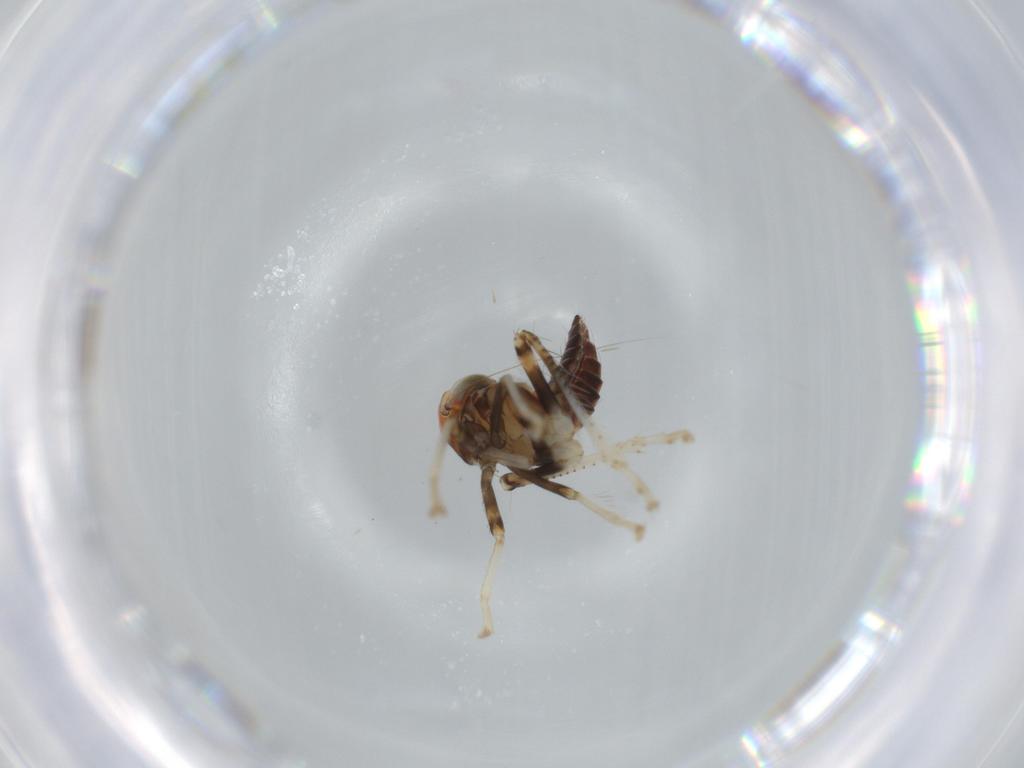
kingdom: Animalia
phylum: Arthropoda
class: Insecta
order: Hemiptera
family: Cicadellidae
